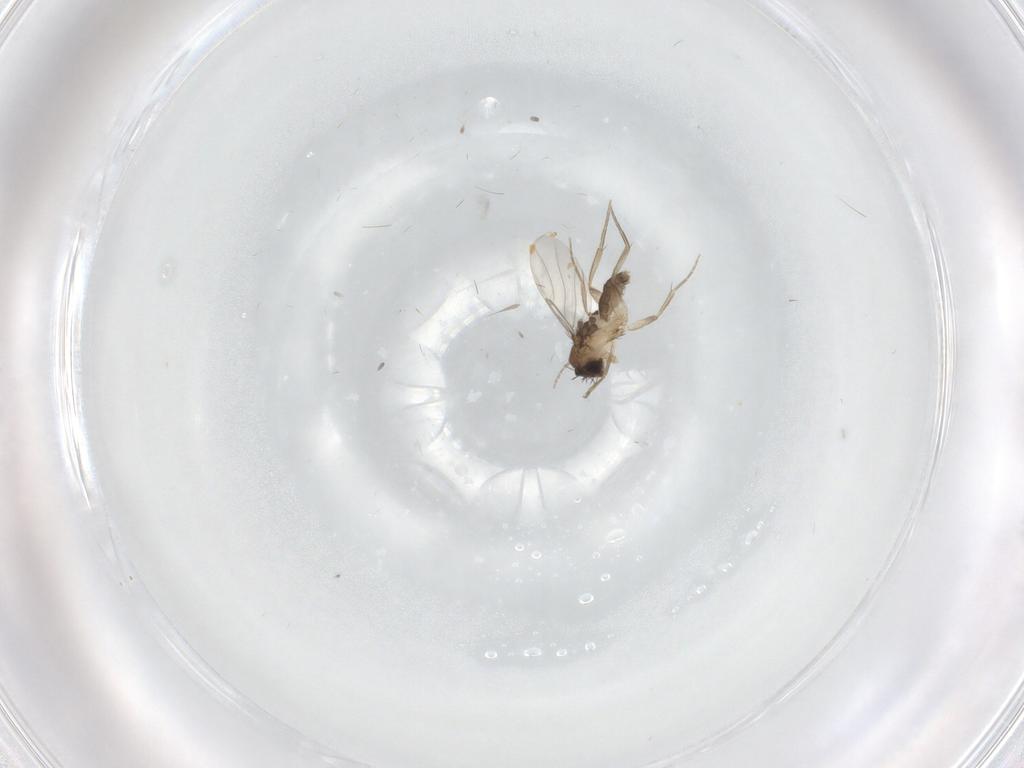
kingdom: Animalia
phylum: Arthropoda
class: Insecta
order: Diptera
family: Phoridae
